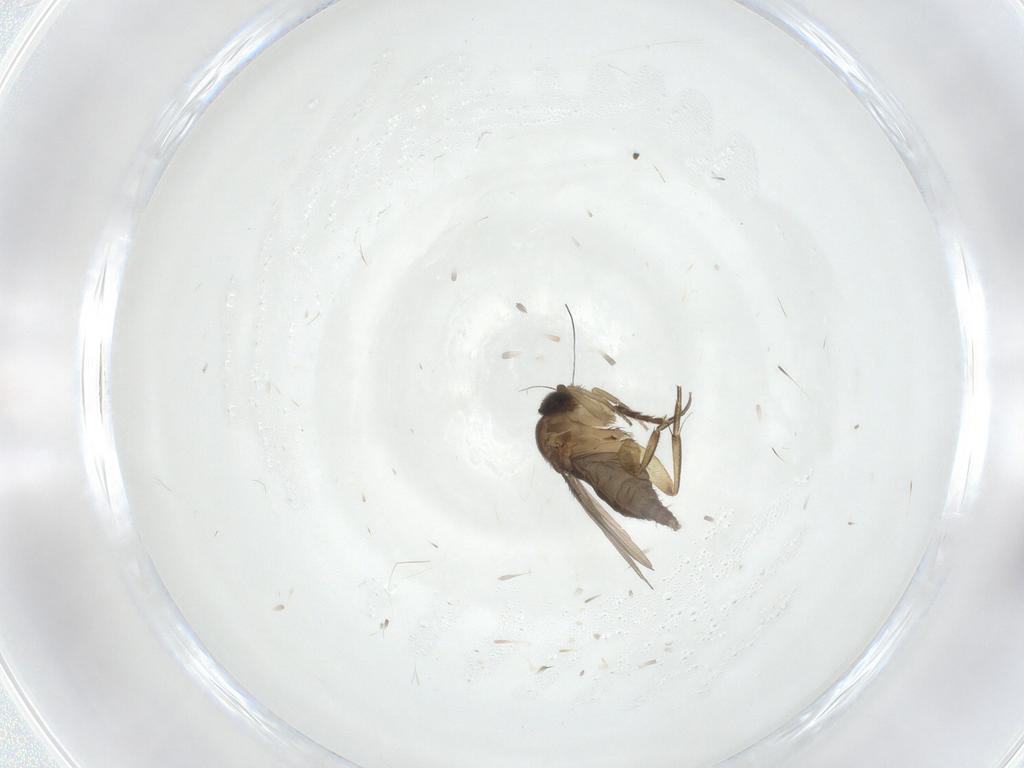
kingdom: Animalia
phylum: Arthropoda
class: Insecta
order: Diptera
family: Phoridae
